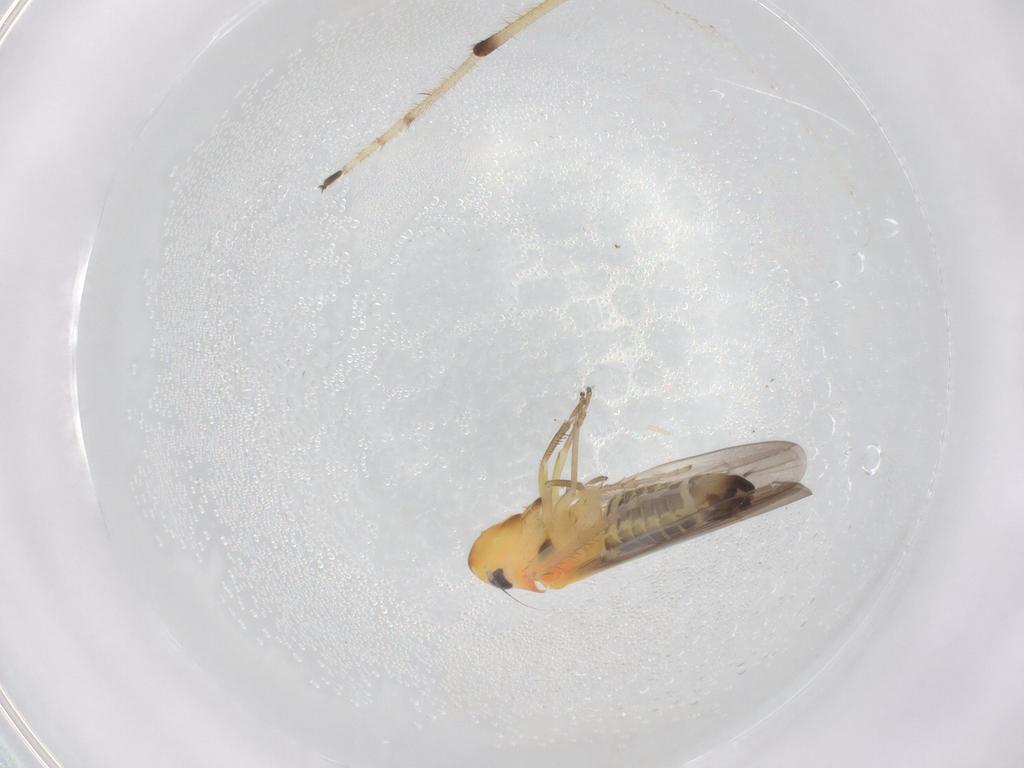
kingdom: Animalia
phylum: Arthropoda
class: Insecta
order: Hemiptera
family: Cicadellidae
